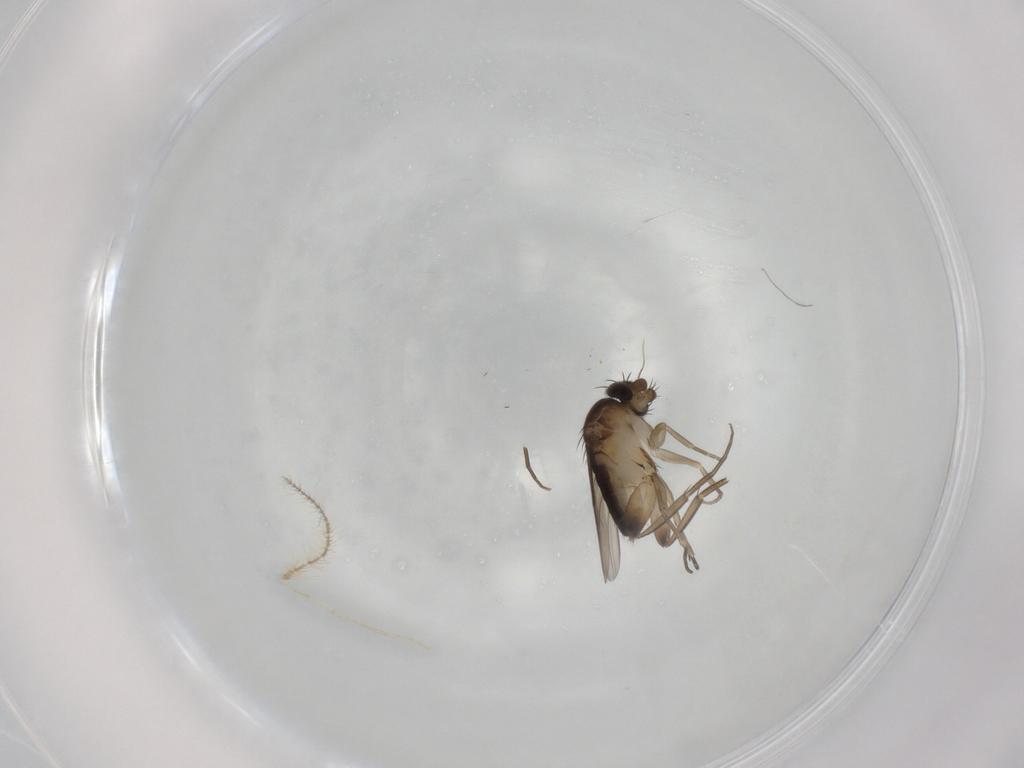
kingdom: Animalia
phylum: Arthropoda
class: Insecta
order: Diptera
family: Phoridae
